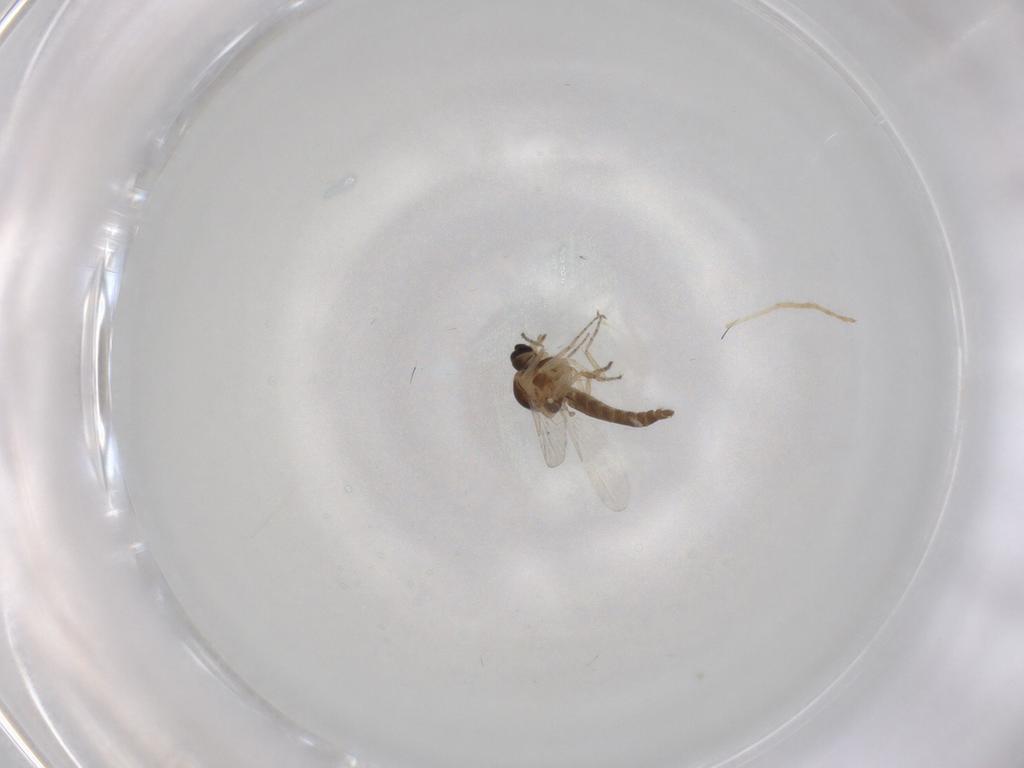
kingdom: Animalia
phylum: Arthropoda
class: Insecta
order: Diptera
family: Ceratopogonidae
